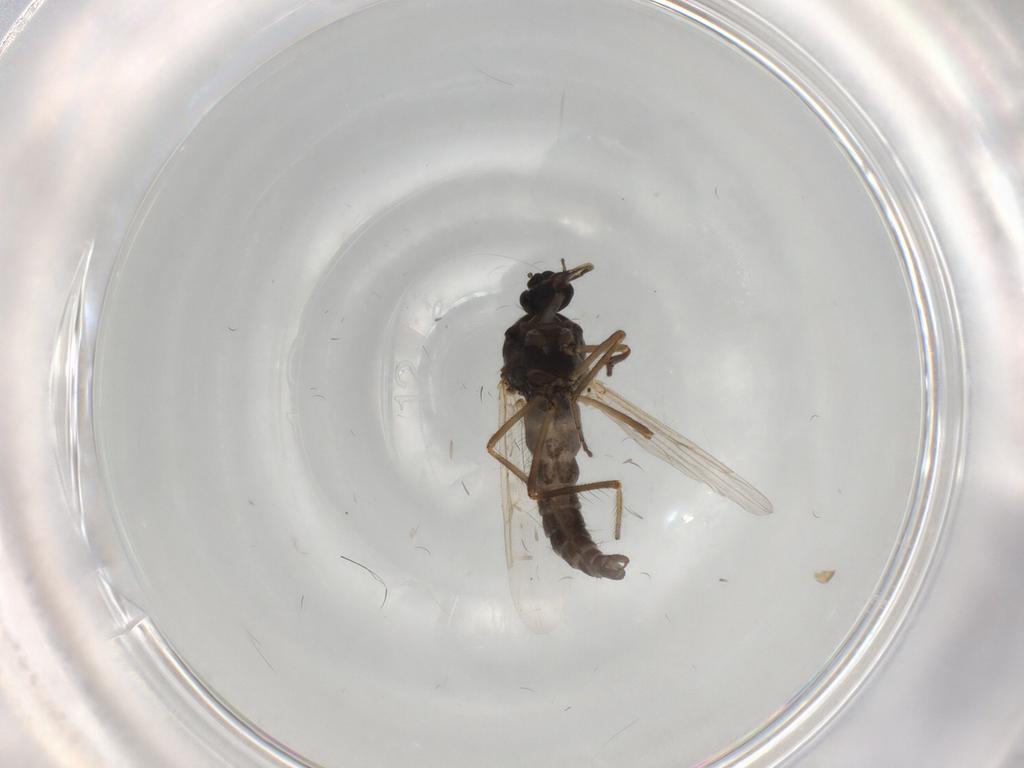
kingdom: Animalia
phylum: Arthropoda
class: Insecta
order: Diptera
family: Ceratopogonidae
